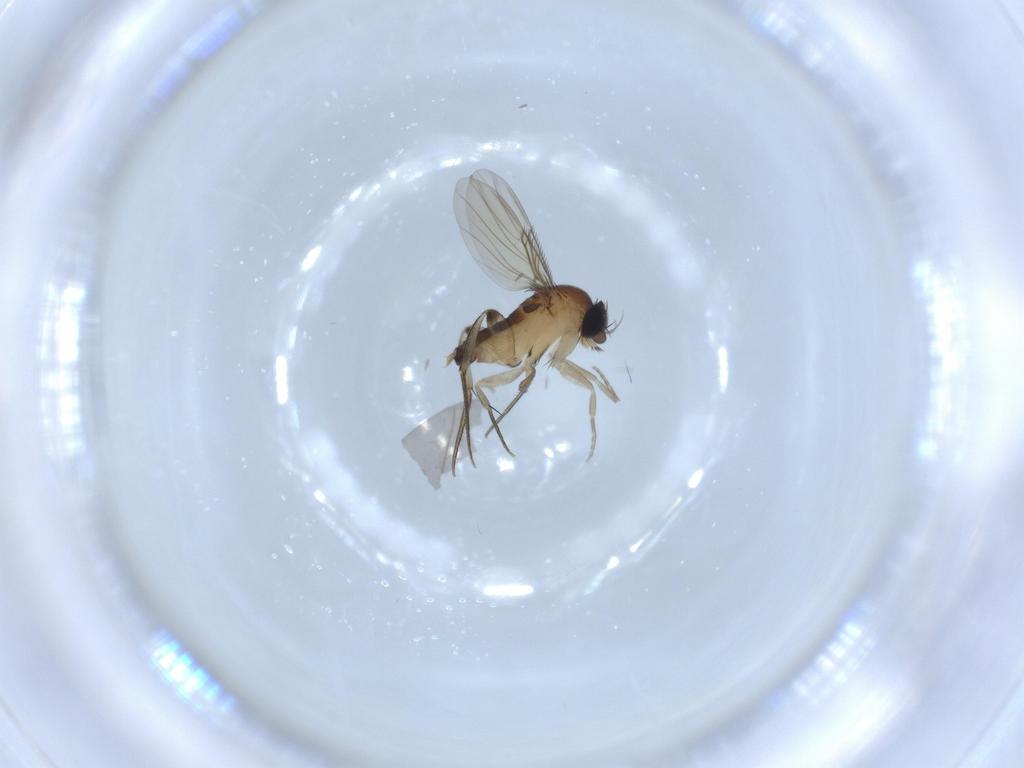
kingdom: Animalia
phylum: Arthropoda
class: Insecta
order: Diptera
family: Phoridae
